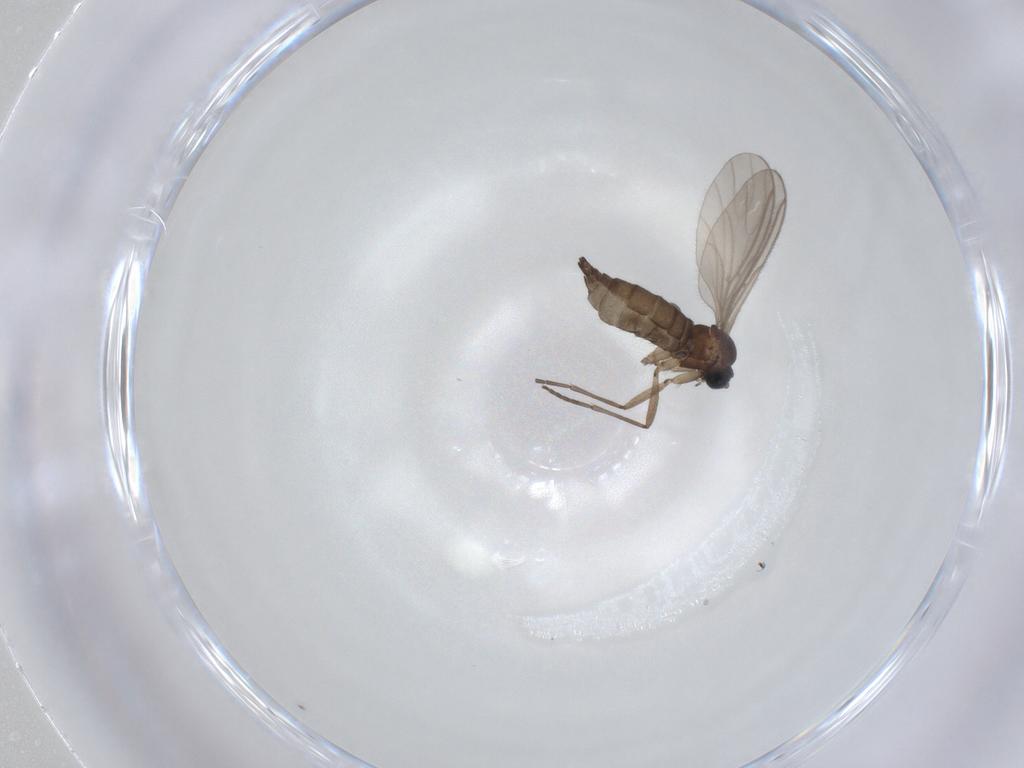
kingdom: Animalia
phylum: Arthropoda
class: Insecta
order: Diptera
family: Sciaridae
